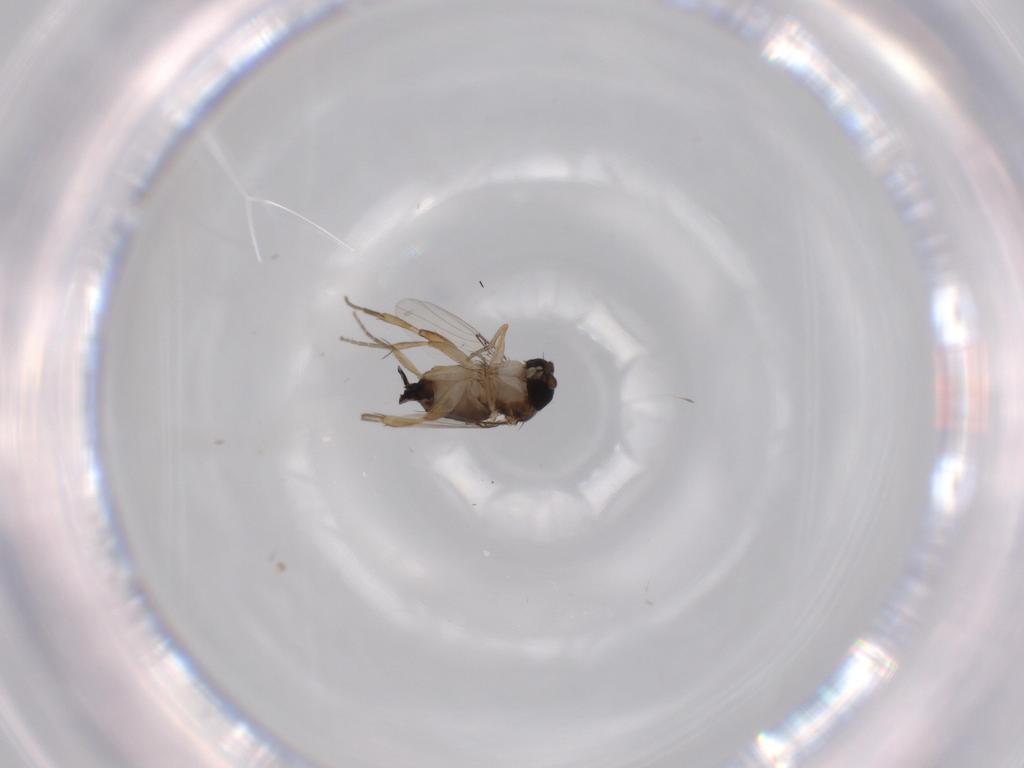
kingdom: Animalia
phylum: Arthropoda
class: Insecta
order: Diptera
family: Phoridae
